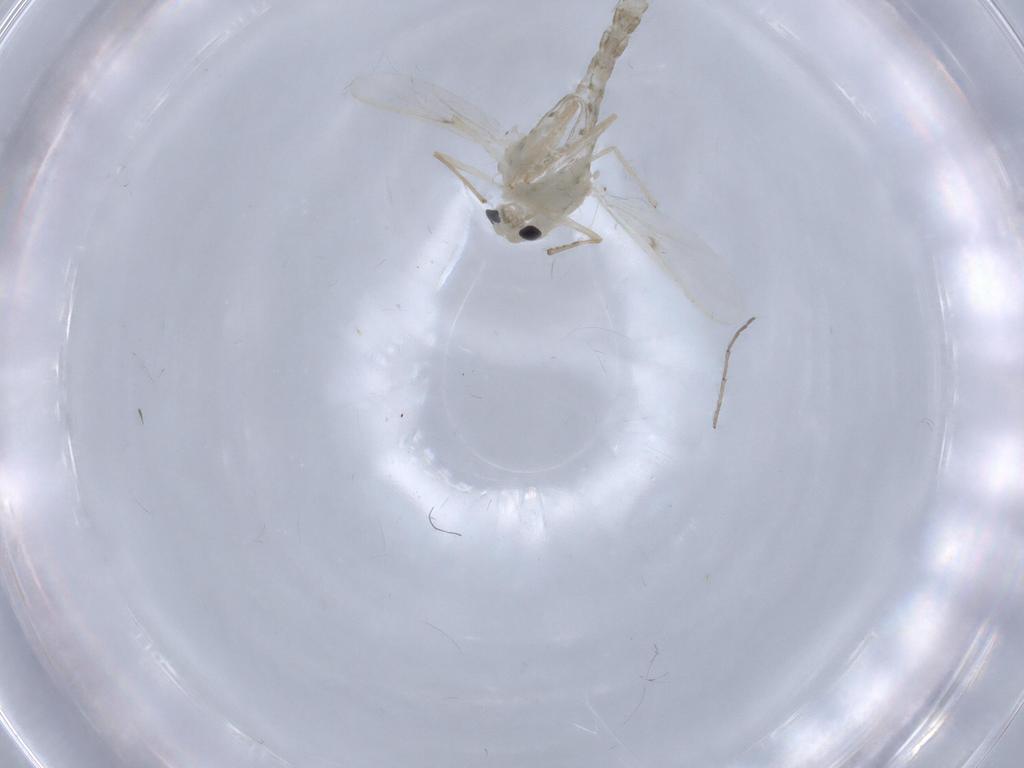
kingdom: Animalia
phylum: Arthropoda
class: Insecta
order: Diptera
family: Chironomidae
